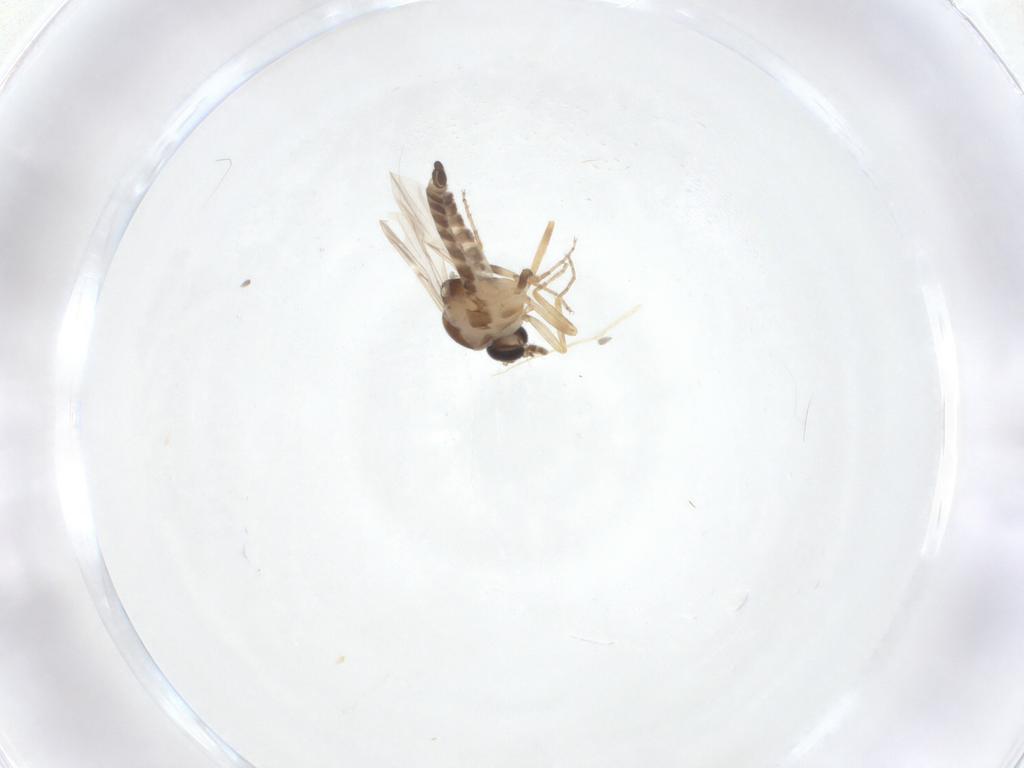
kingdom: Animalia
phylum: Arthropoda
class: Insecta
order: Diptera
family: Ceratopogonidae
